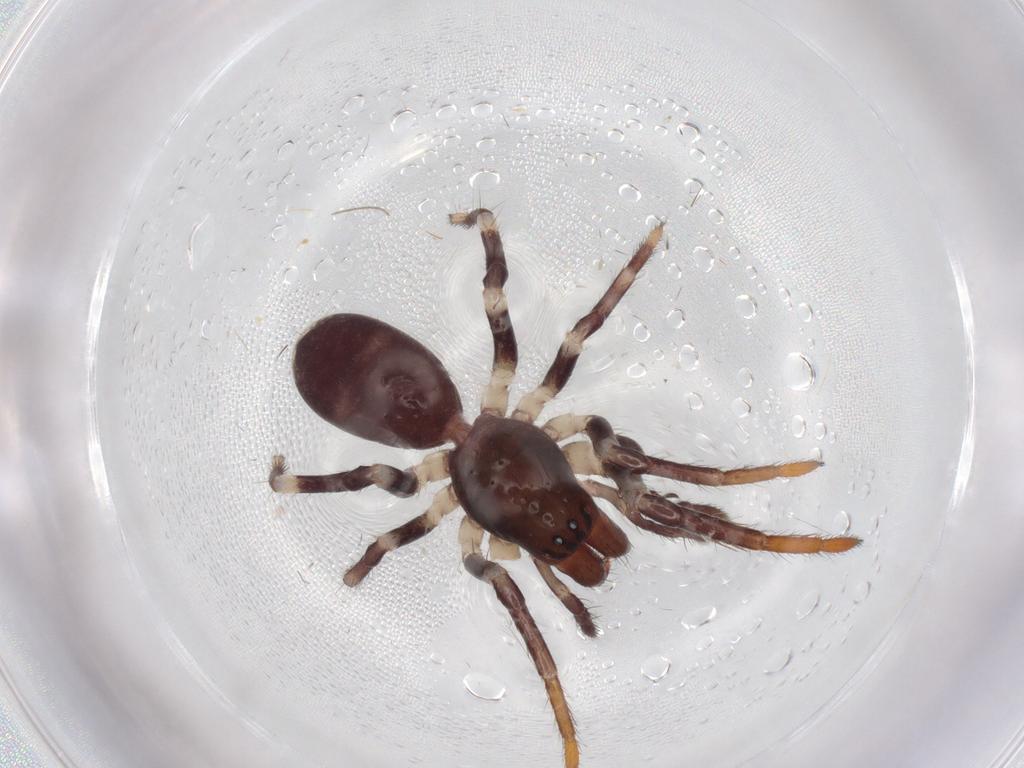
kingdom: Animalia
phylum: Arthropoda
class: Arachnida
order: Araneae
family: Corinnidae
